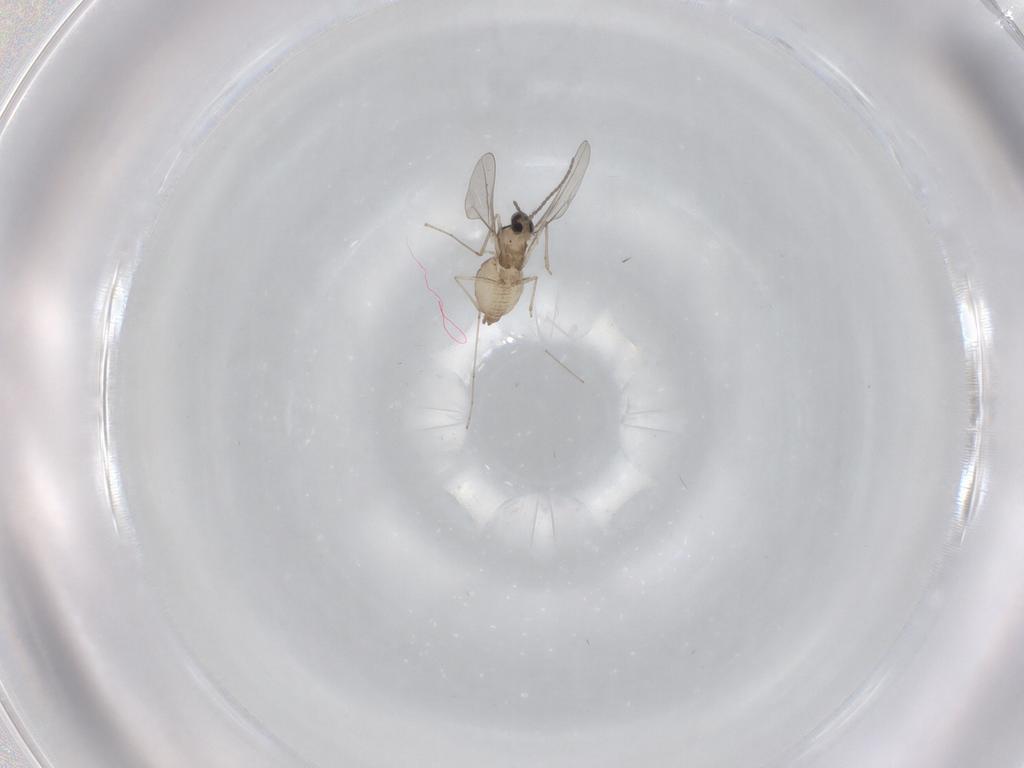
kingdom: Animalia
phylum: Arthropoda
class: Insecta
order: Diptera
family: Cecidomyiidae
